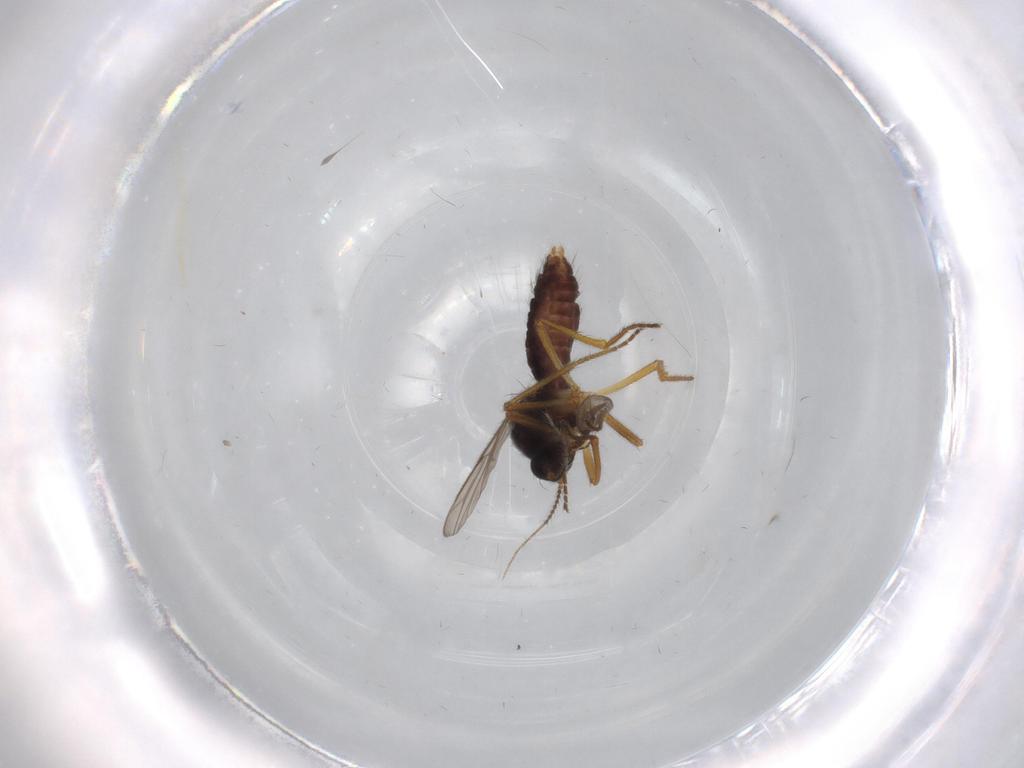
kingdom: Animalia
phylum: Arthropoda
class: Insecta
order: Diptera
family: Ceratopogonidae
